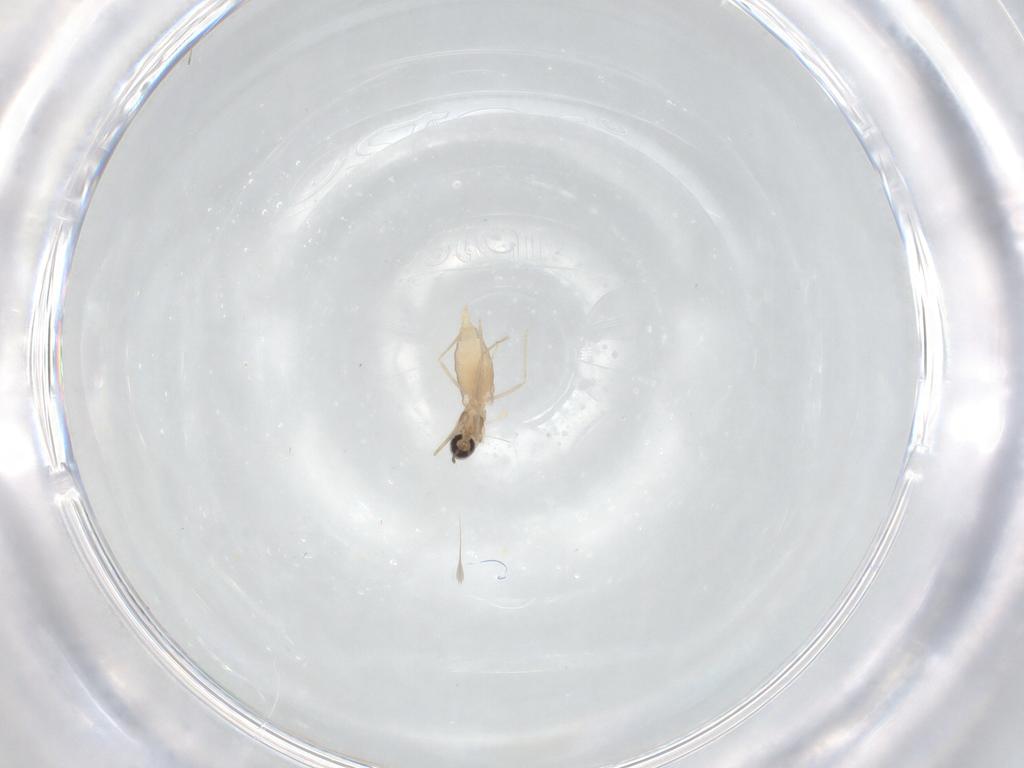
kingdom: Animalia
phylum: Arthropoda
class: Insecta
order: Diptera
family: Cecidomyiidae
